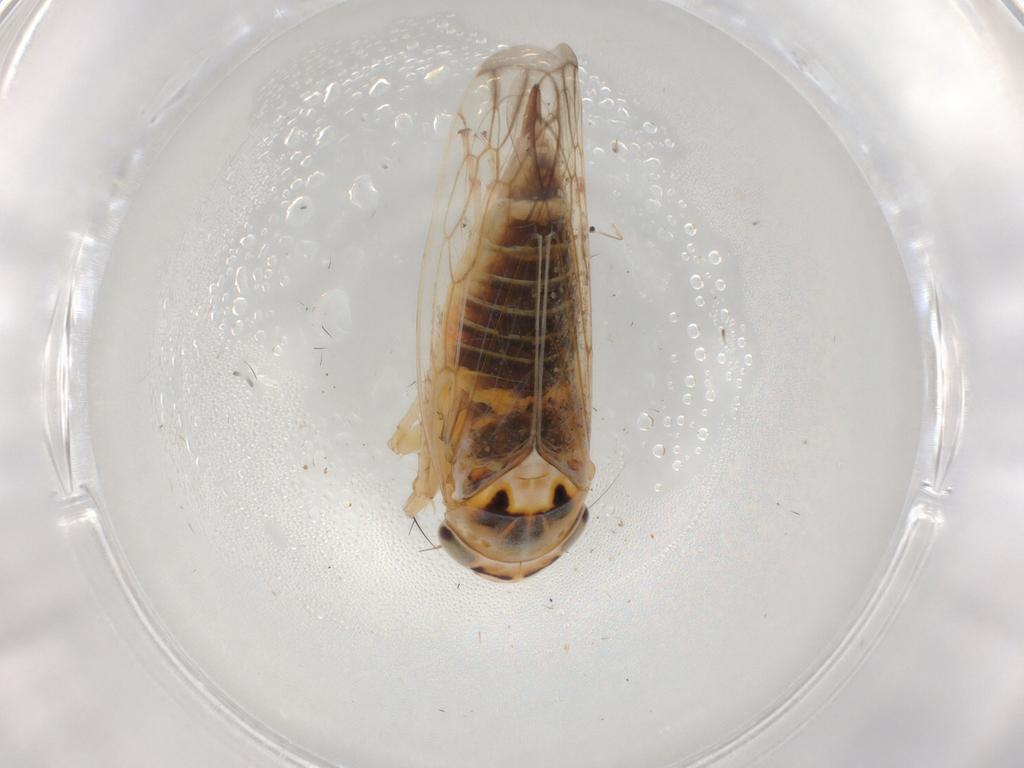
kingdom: Animalia
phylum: Arthropoda
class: Insecta
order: Hemiptera
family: Cicadellidae
